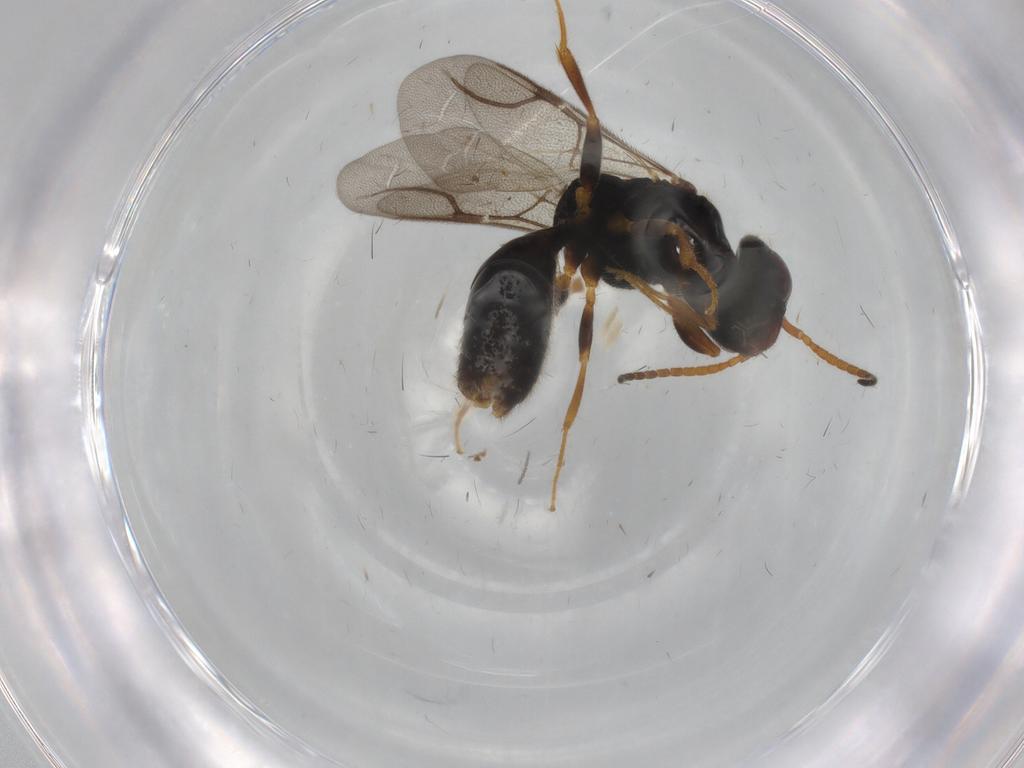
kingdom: Animalia
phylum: Arthropoda
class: Insecta
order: Hymenoptera
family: Bethylidae
